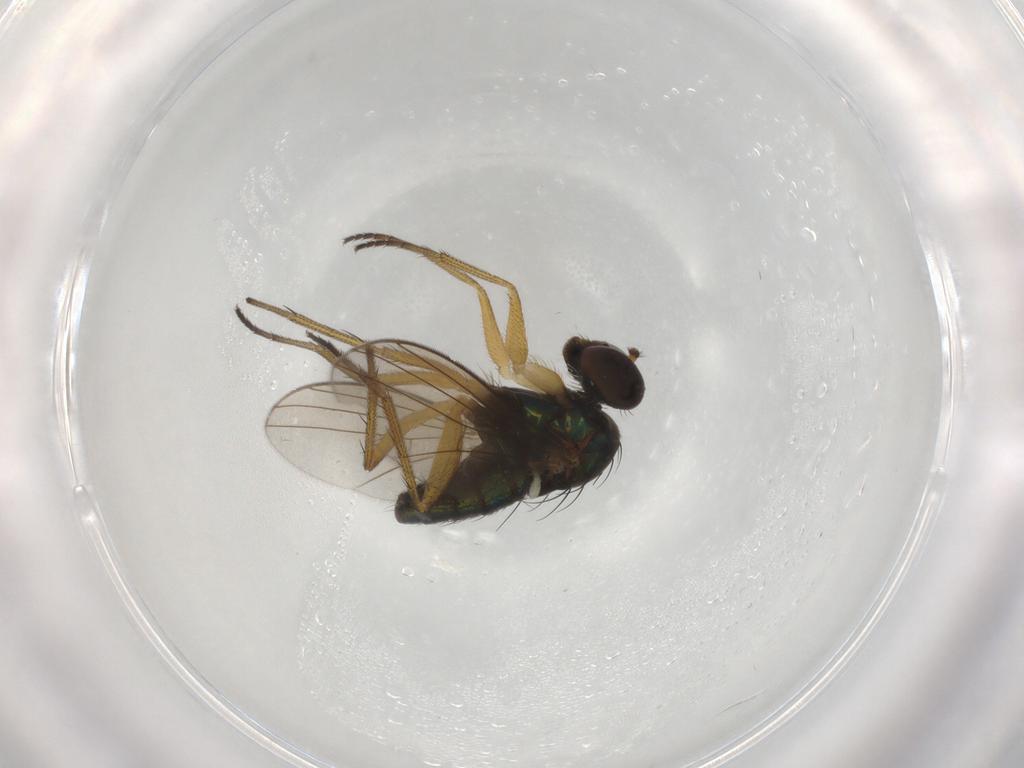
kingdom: Animalia
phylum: Arthropoda
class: Insecta
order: Diptera
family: Dolichopodidae
